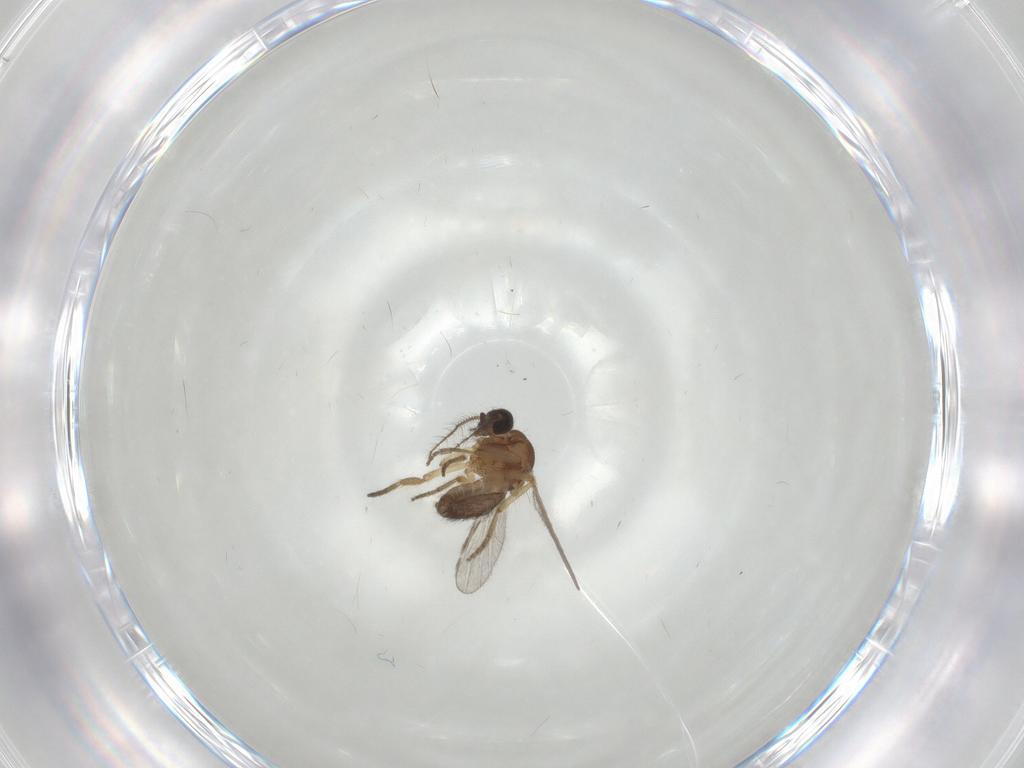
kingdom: Animalia
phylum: Arthropoda
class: Insecta
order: Diptera
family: Ceratopogonidae
